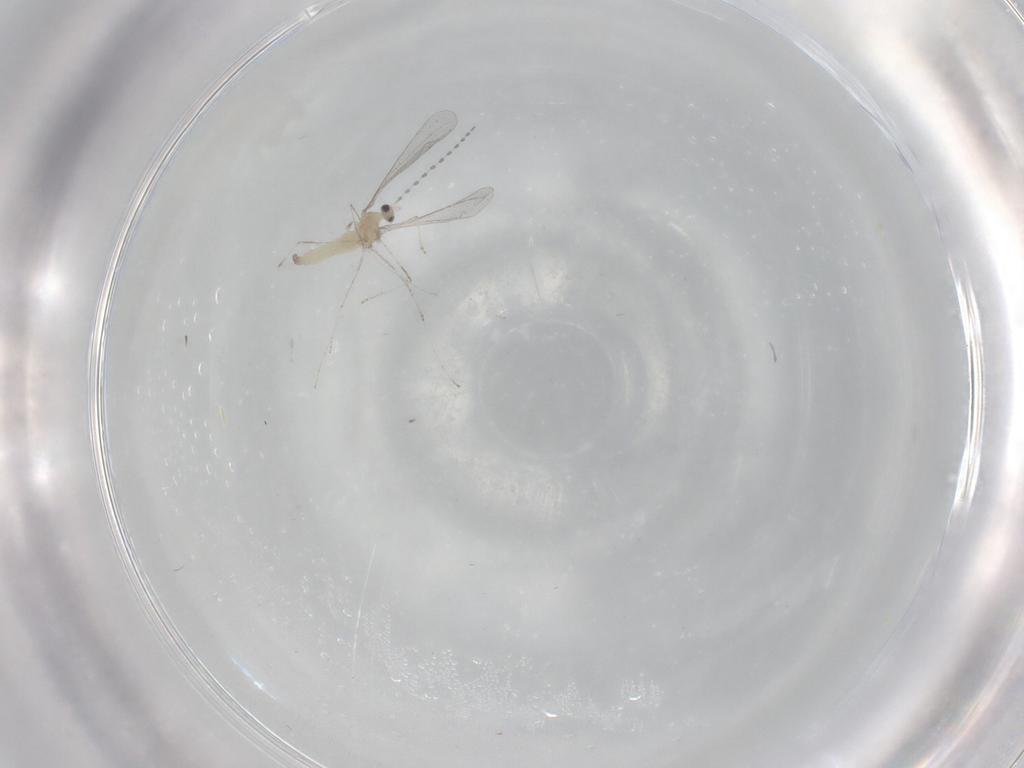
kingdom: Animalia
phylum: Arthropoda
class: Insecta
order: Diptera
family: Cecidomyiidae
